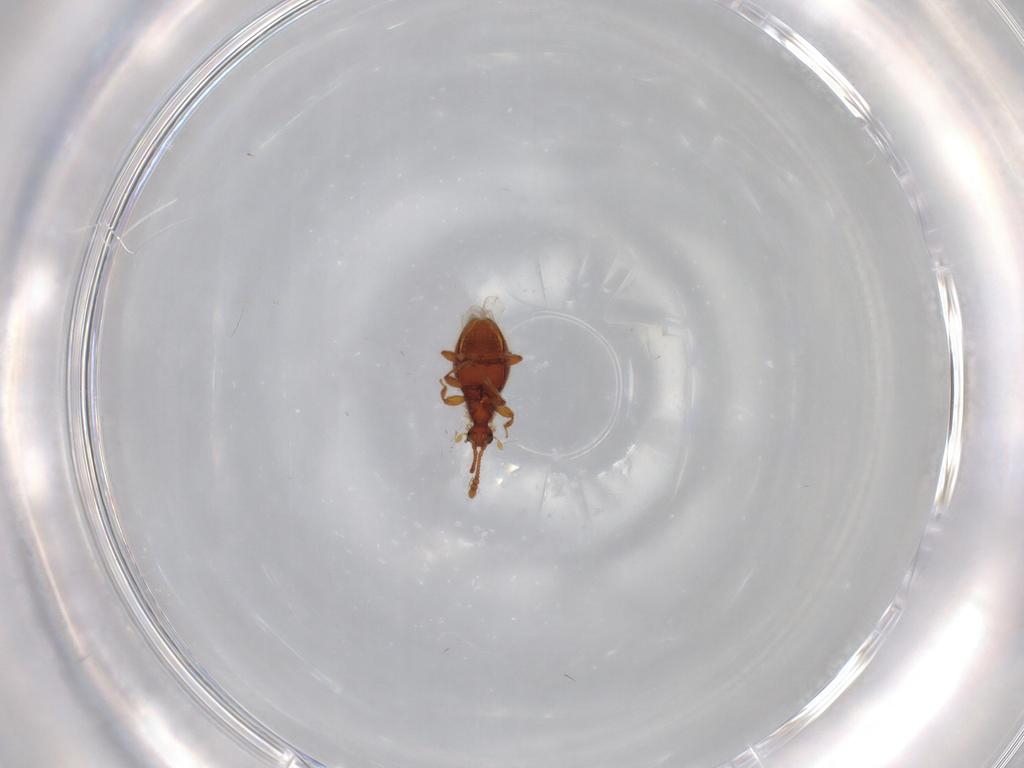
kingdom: Animalia
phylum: Arthropoda
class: Insecta
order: Coleoptera
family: Staphylinidae
